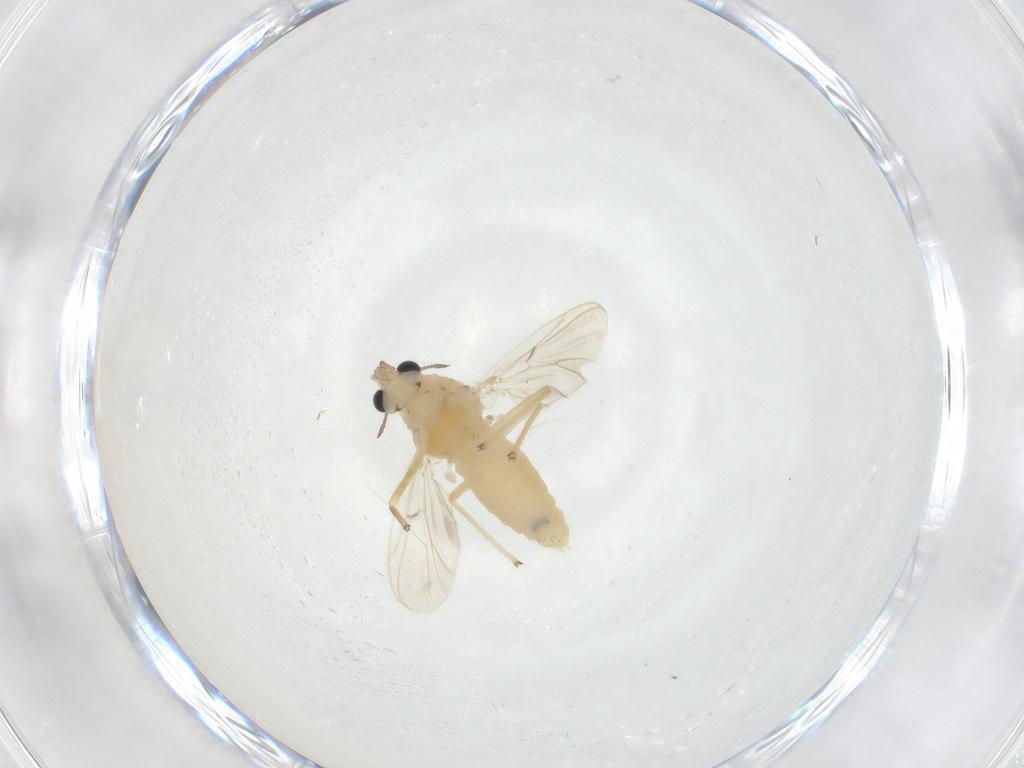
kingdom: Animalia
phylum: Arthropoda
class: Insecta
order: Diptera
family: Chironomidae
